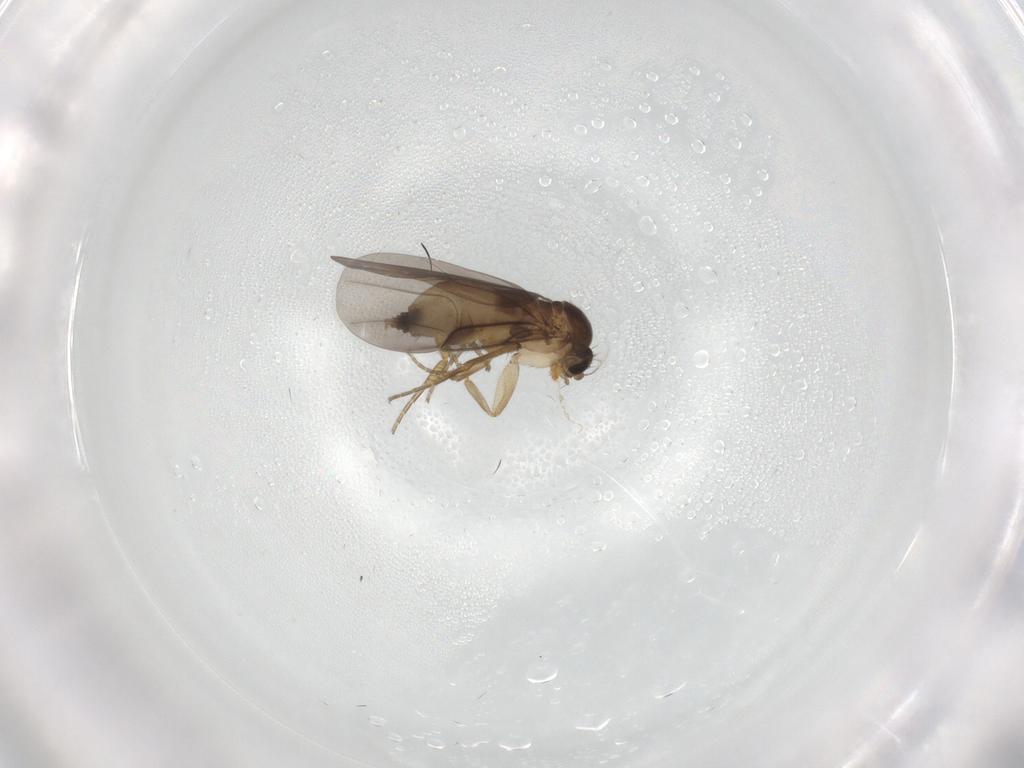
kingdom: Animalia
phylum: Arthropoda
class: Insecta
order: Diptera
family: Phoridae
